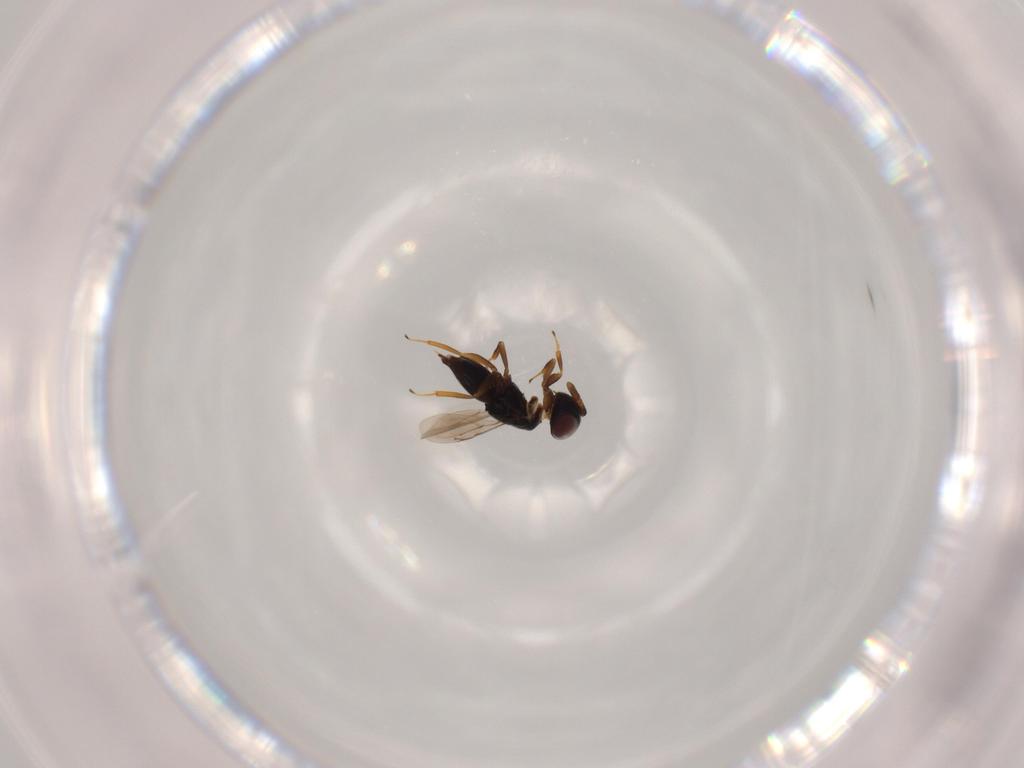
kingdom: Animalia
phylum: Arthropoda
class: Insecta
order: Hymenoptera
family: Eunotidae
